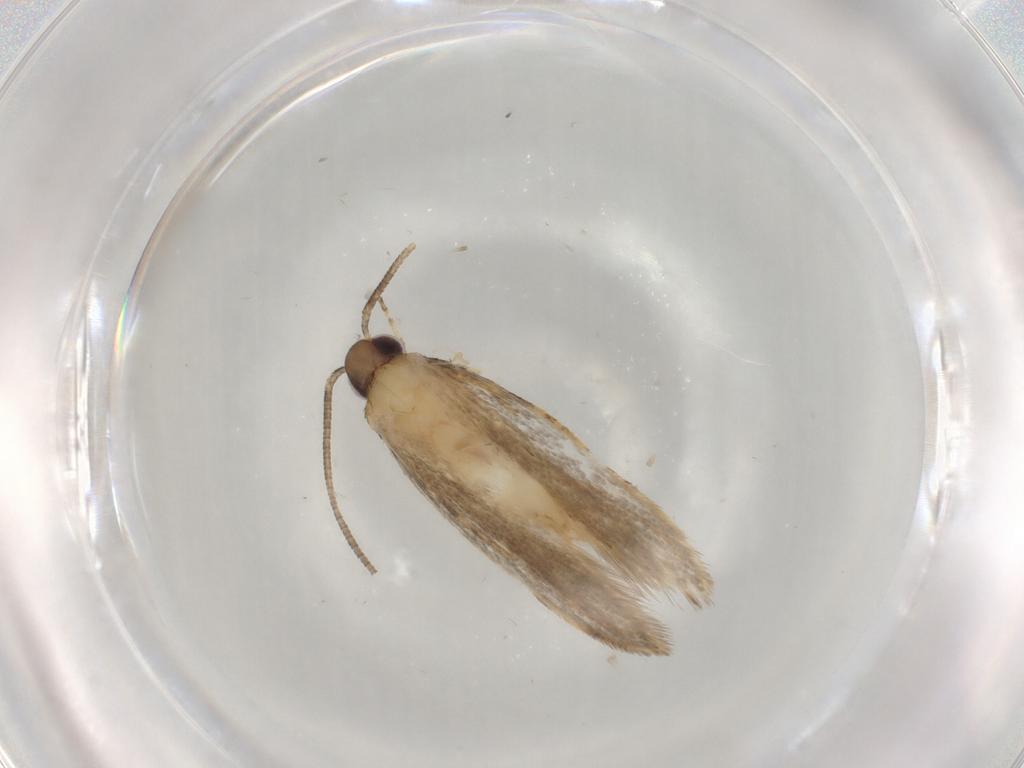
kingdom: Animalia
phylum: Arthropoda
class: Insecta
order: Lepidoptera
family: Autostichidae
